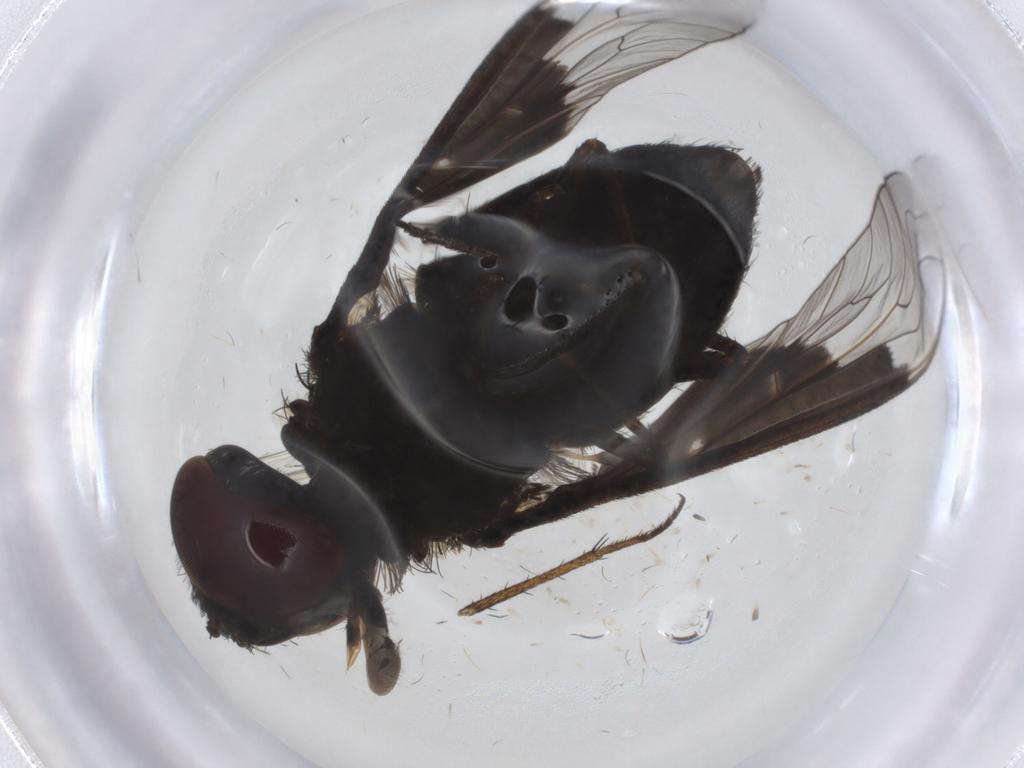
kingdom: Animalia
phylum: Arthropoda
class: Insecta
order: Diptera
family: Bombyliidae
